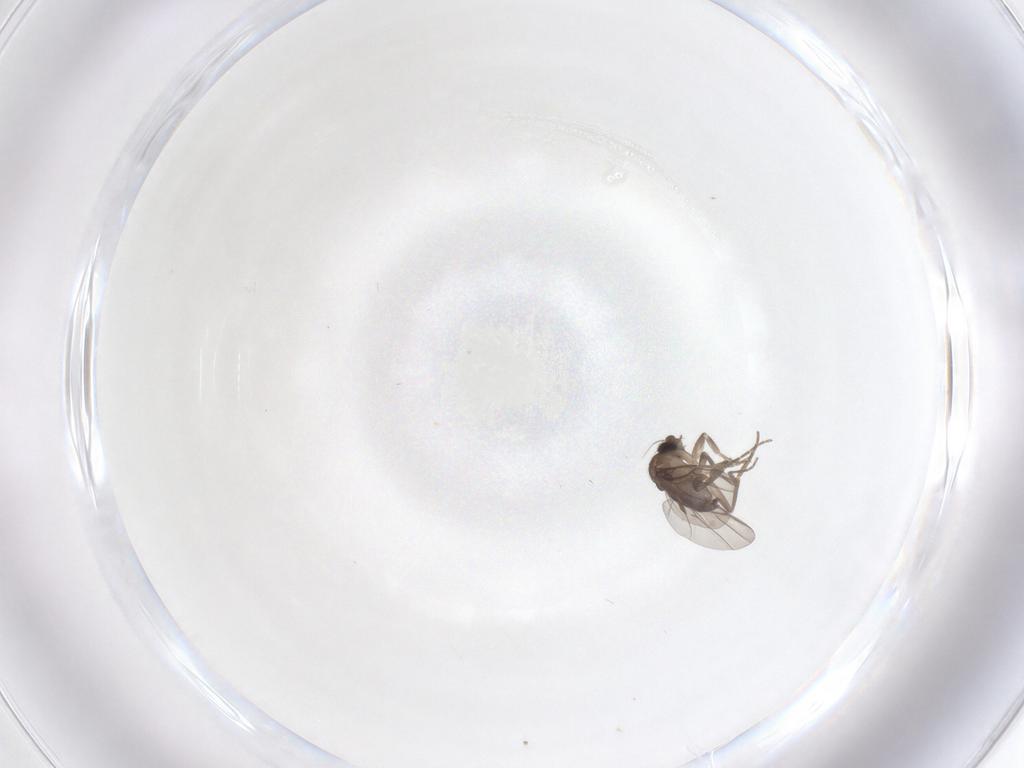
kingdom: Animalia
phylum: Arthropoda
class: Insecta
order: Diptera
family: Phoridae
